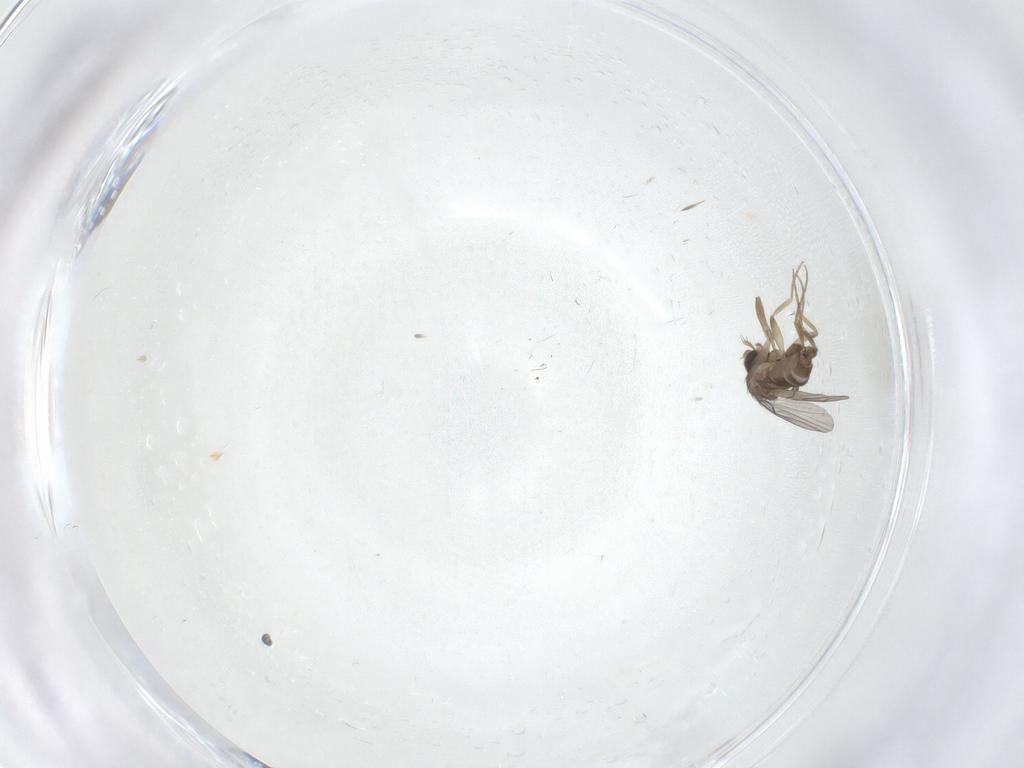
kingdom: Animalia
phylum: Arthropoda
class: Insecta
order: Diptera
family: Phoridae
